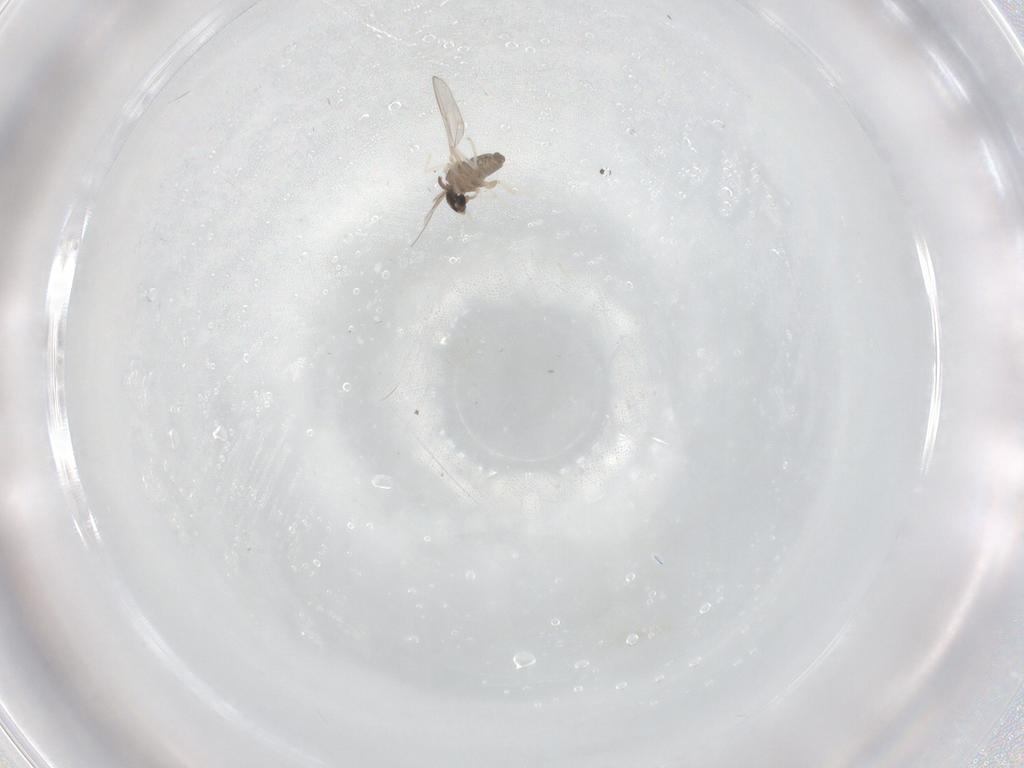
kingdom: Animalia
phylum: Arthropoda
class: Insecta
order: Diptera
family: Cecidomyiidae
